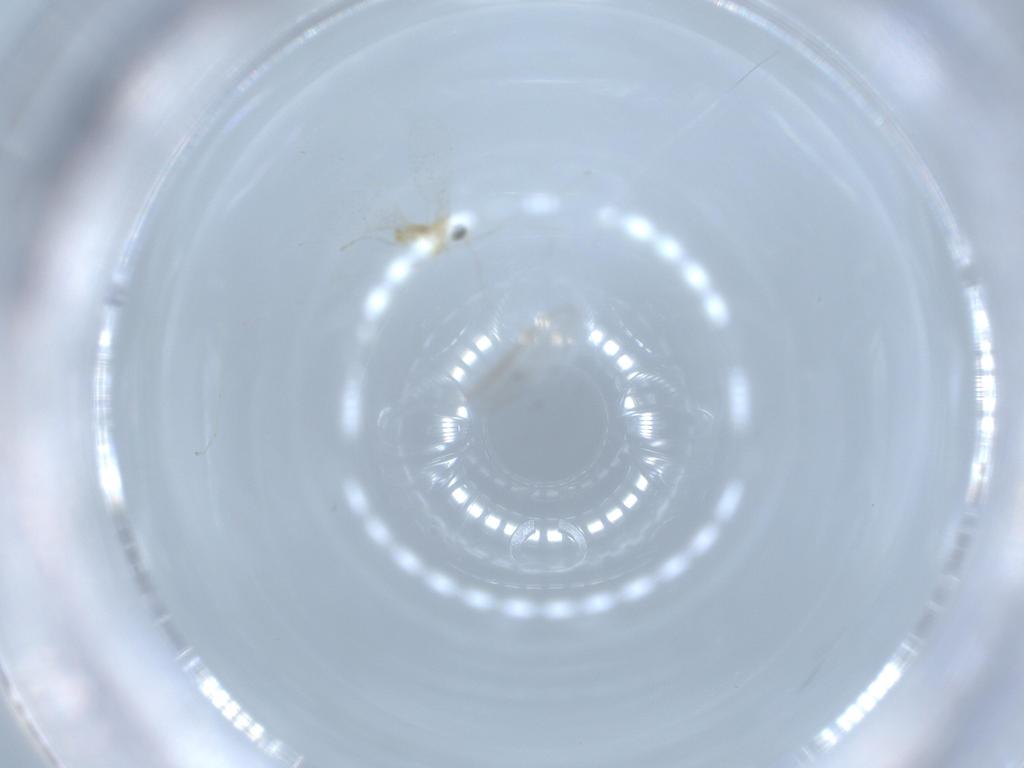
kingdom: Animalia
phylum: Arthropoda
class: Insecta
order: Diptera
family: Chironomidae
